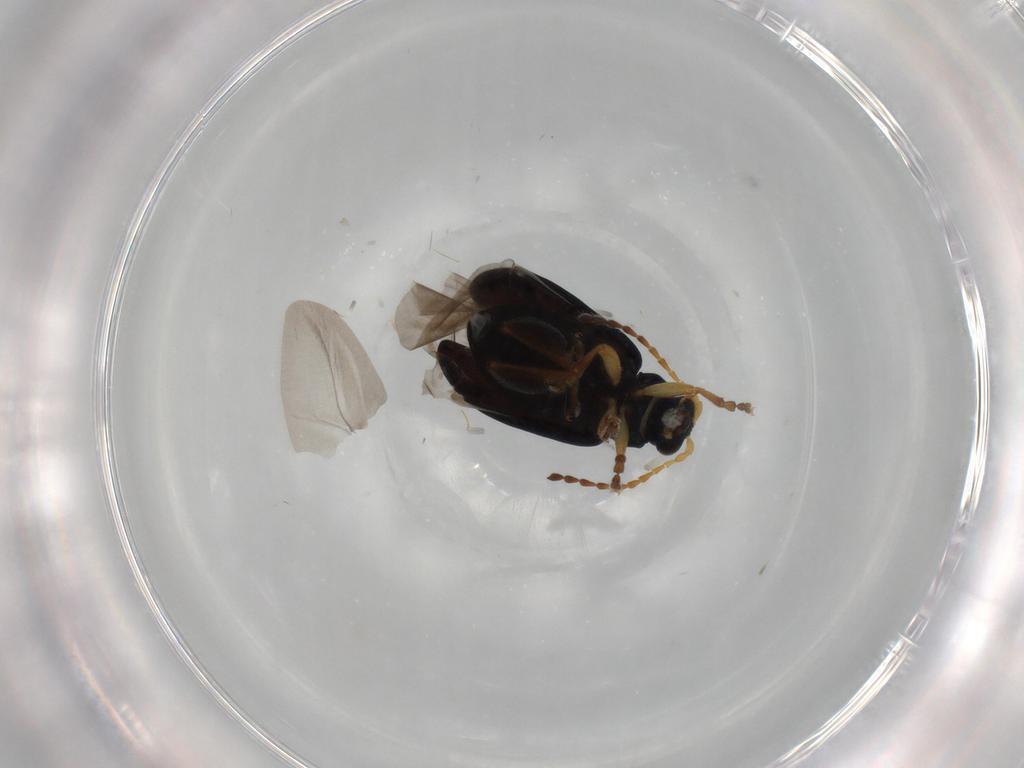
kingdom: Animalia
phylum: Arthropoda
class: Insecta
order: Coleoptera
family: Chrysomelidae
